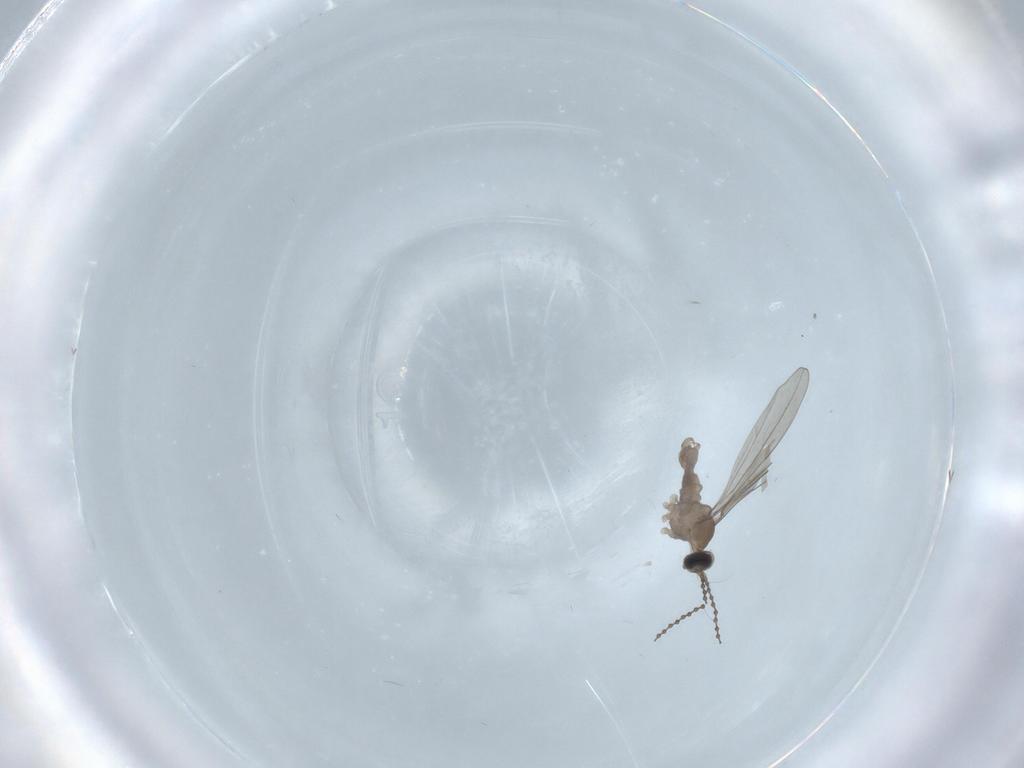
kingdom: Animalia
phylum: Arthropoda
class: Insecta
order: Diptera
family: Cecidomyiidae
